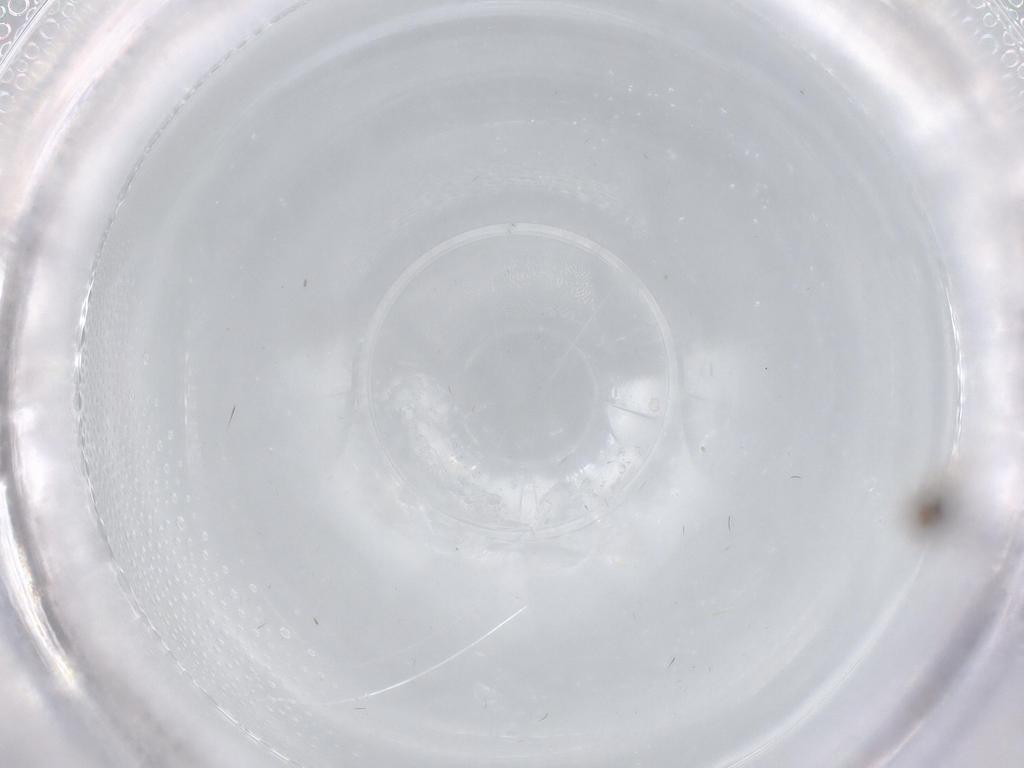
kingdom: Animalia
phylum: Arthropoda
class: Insecta
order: Diptera
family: Cecidomyiidae
